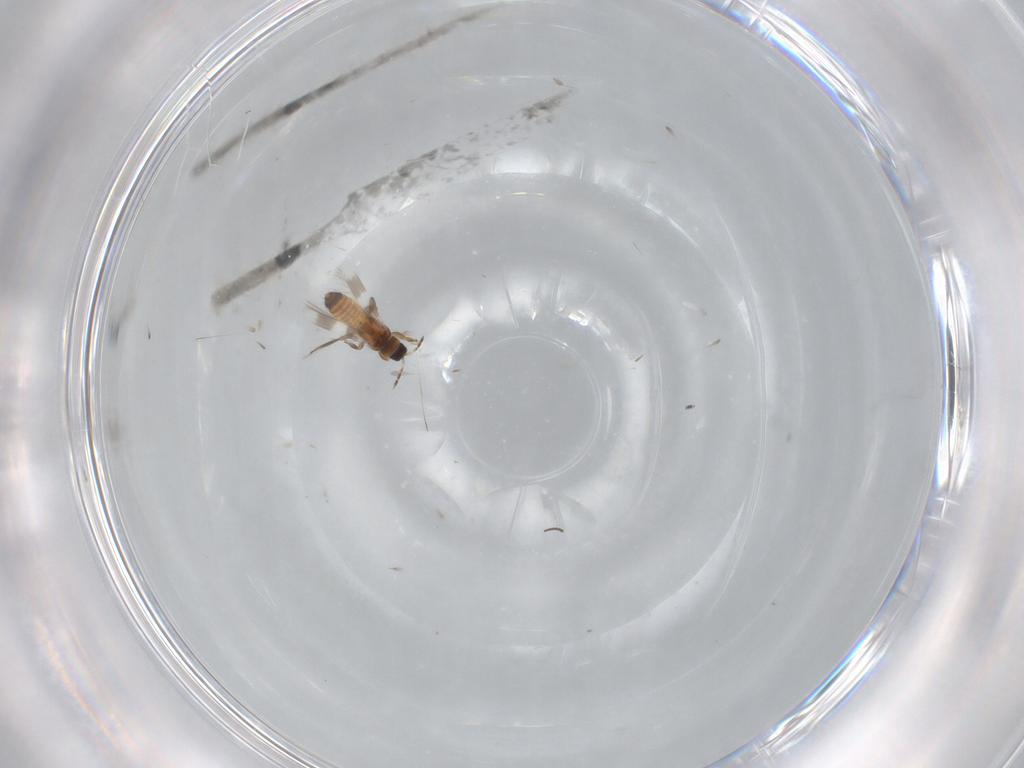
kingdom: Animalia
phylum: Arthropoda
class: Insecta
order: Thysanoptera
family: Aeolothripidae
